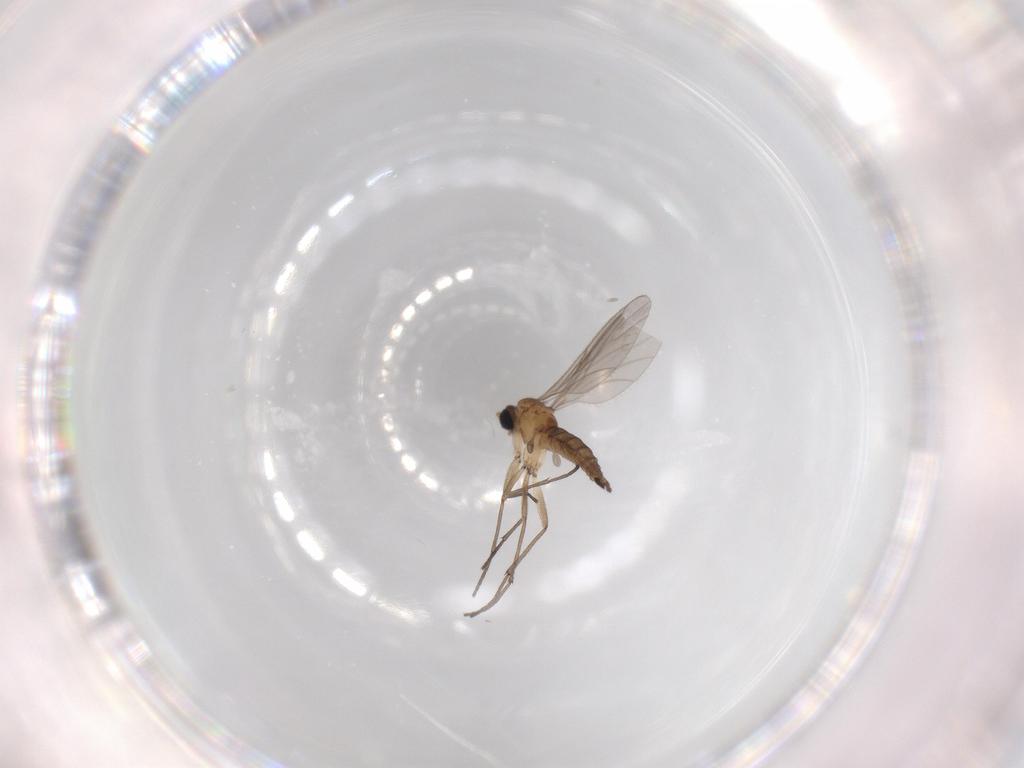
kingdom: Animalia
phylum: Arthropoda
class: Insecta
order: Diptera
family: Sciaridae
